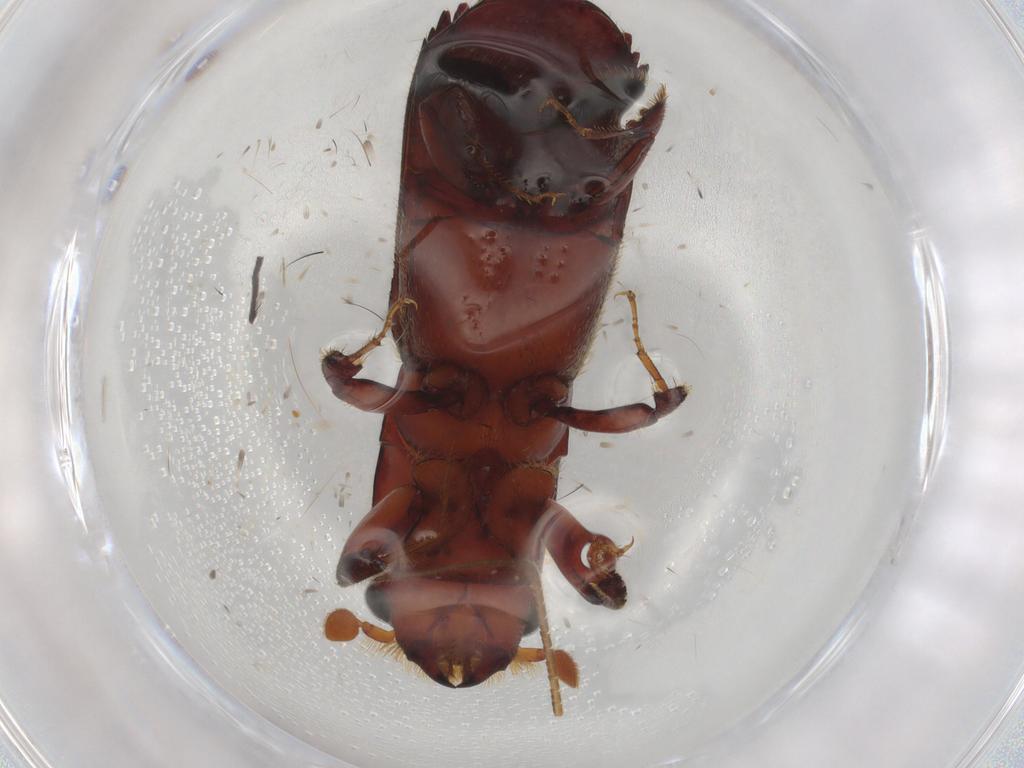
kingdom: Animalia
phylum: Arthropoda
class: Insecta
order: Coleoptera
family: Curculionidae
